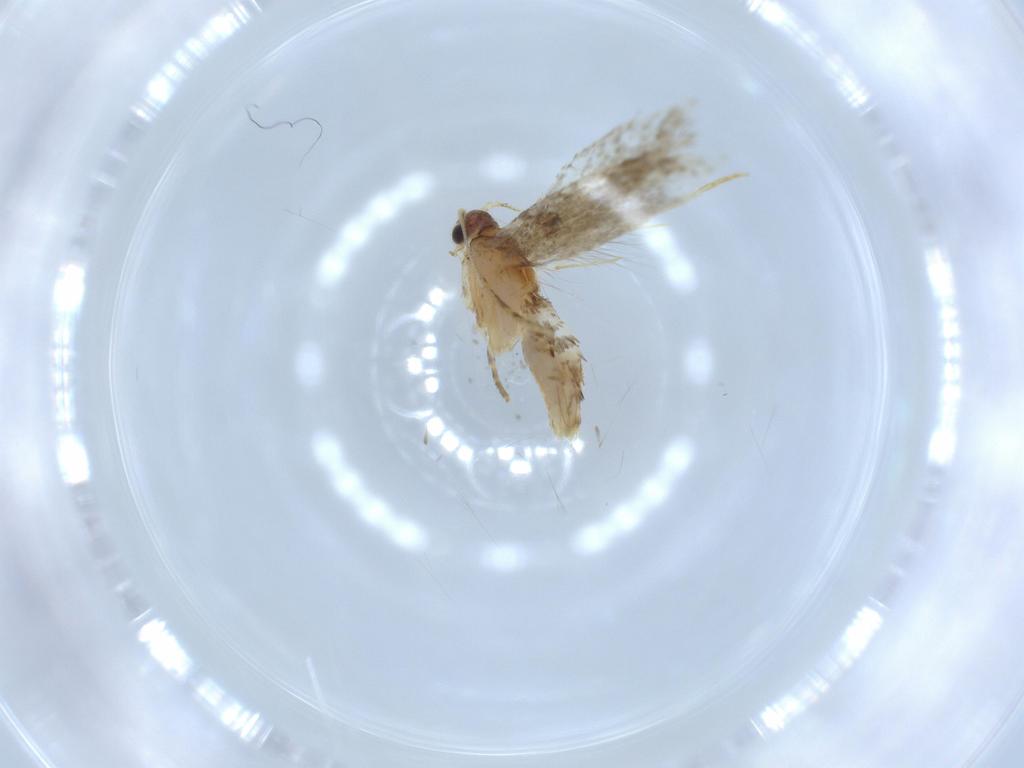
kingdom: Animalia
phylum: Arthropoda
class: Insecta
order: Lepidoptera
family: Tineidae
